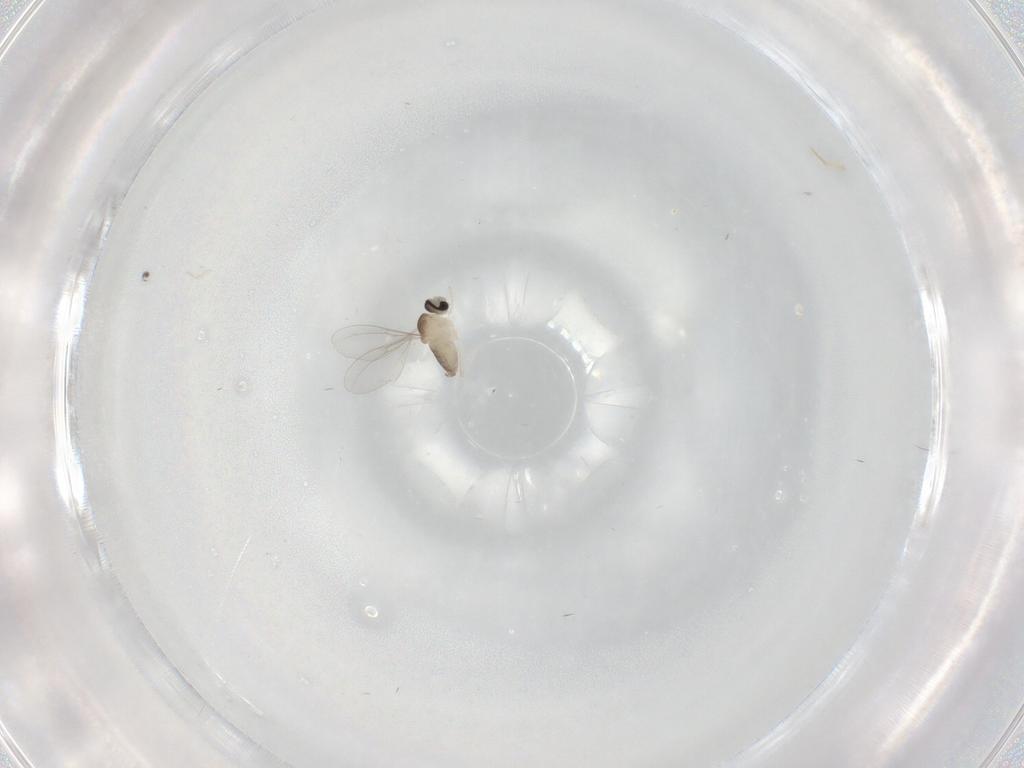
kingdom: Animalia
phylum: Arthropoda
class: Insecta
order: Diptera
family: Cecidomyiidae
